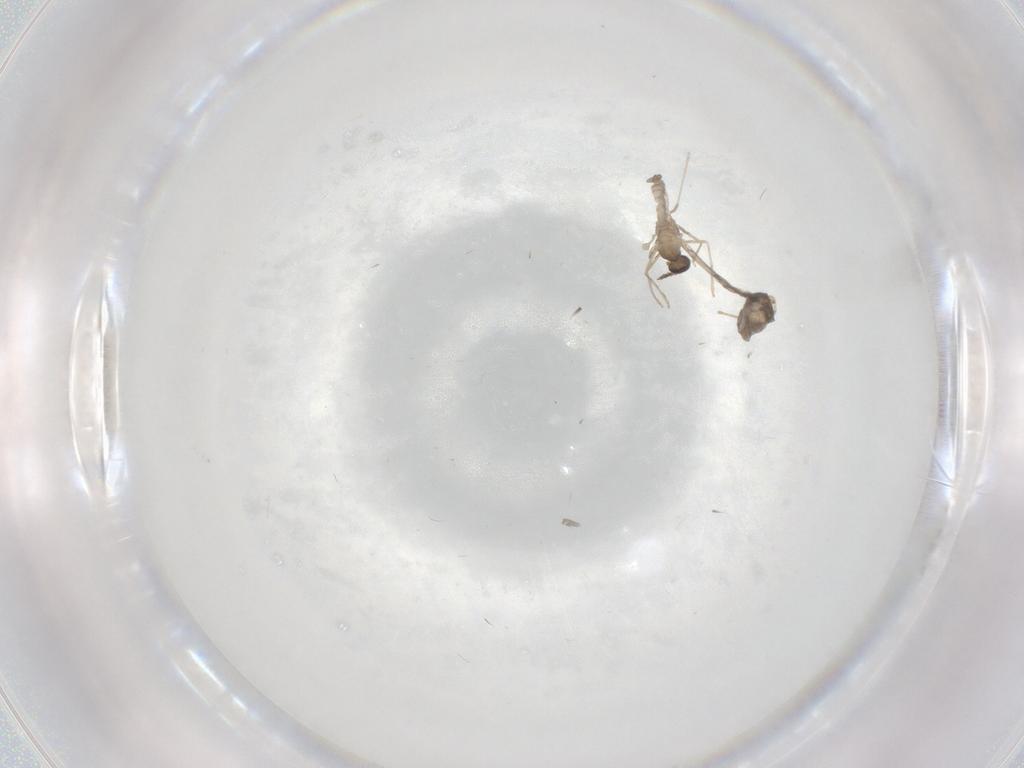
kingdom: Animalia
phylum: Arthropoda
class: Insecta
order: Diptera
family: Cecidomyiidae
